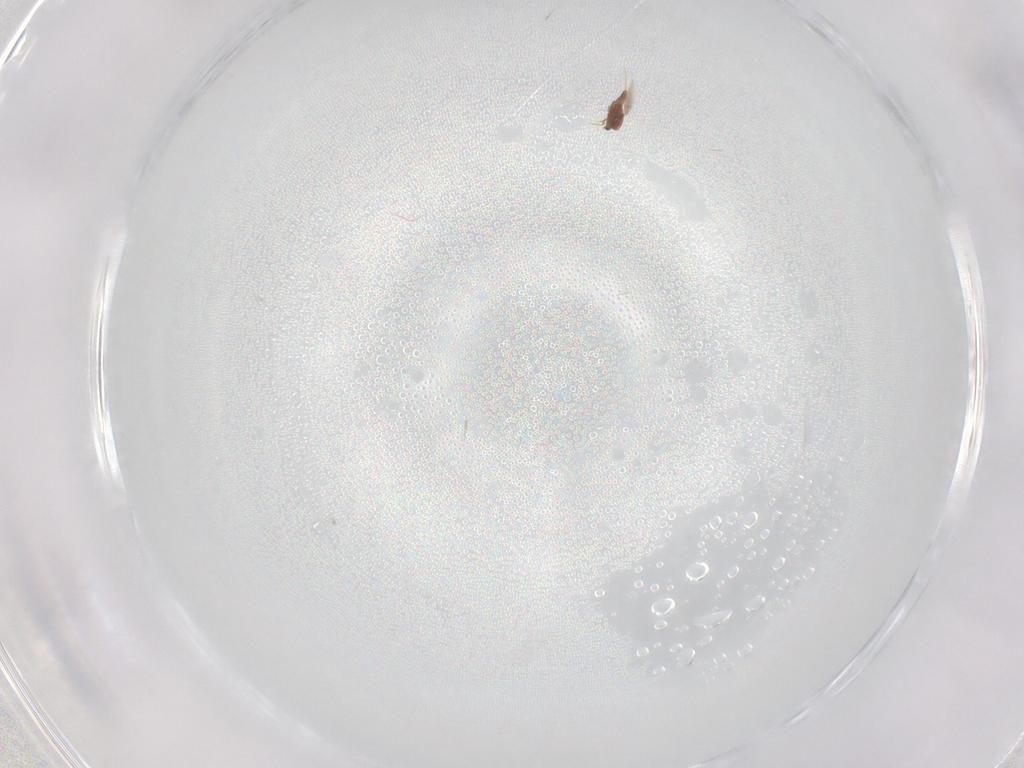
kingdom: Animalia
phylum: Arthropoda
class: Insecta
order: Hemiptera
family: Diaspididae
